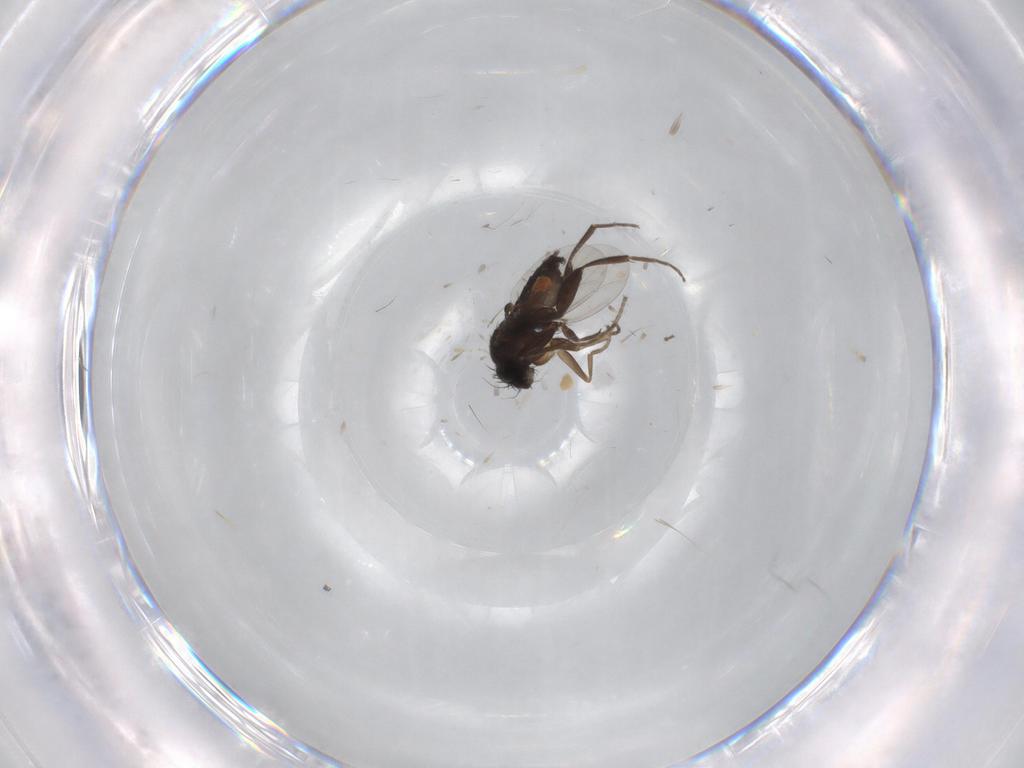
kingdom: Animalia
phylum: Arthropoda
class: Insecta
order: Diptera
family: Phoridae
